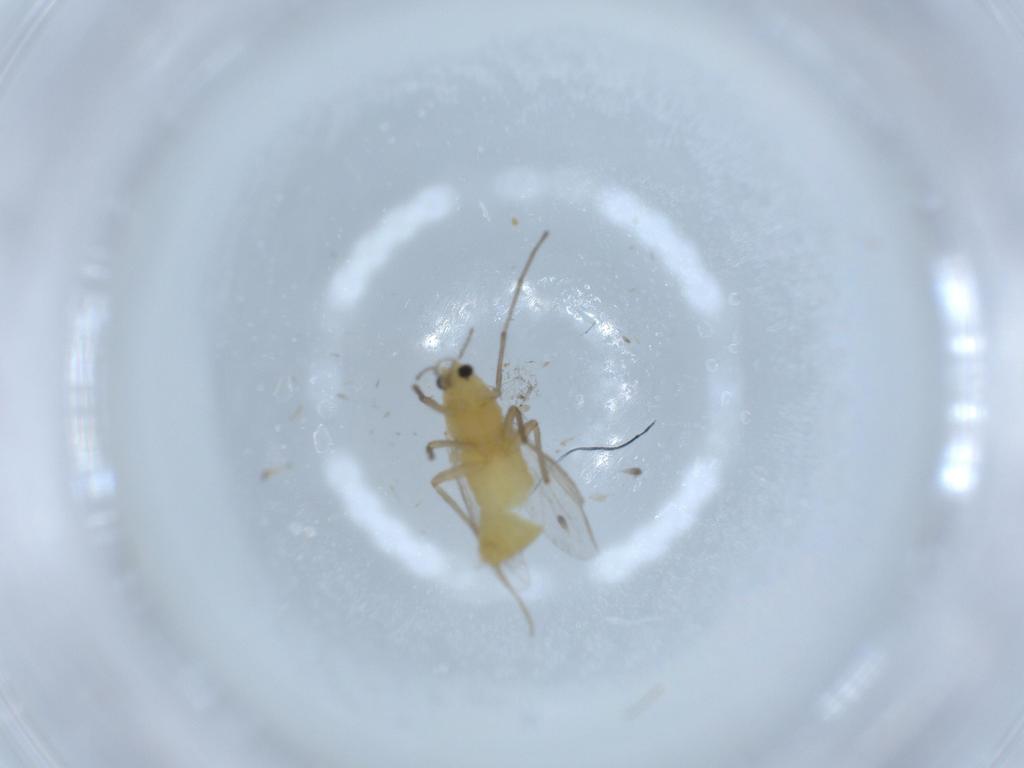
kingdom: Animalia
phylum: Arthropoda
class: Insecta
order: Diptera
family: Chironomidae
